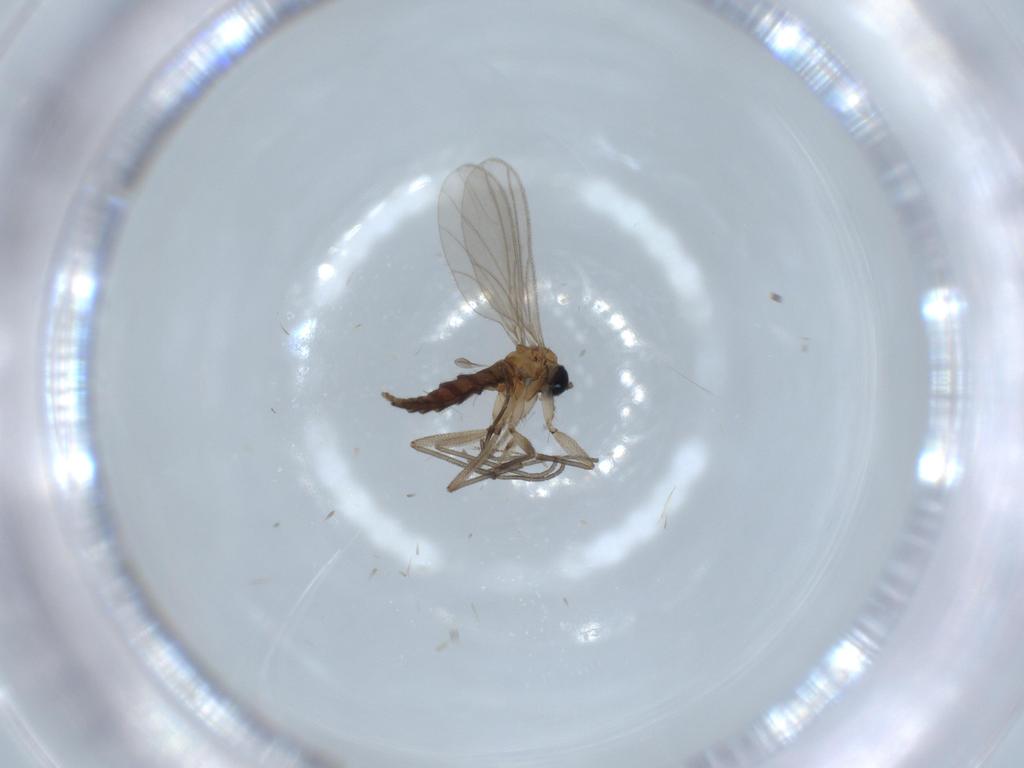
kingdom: Animalia
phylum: Arthropoda
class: Insecta
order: Diptera
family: Sciaridae
